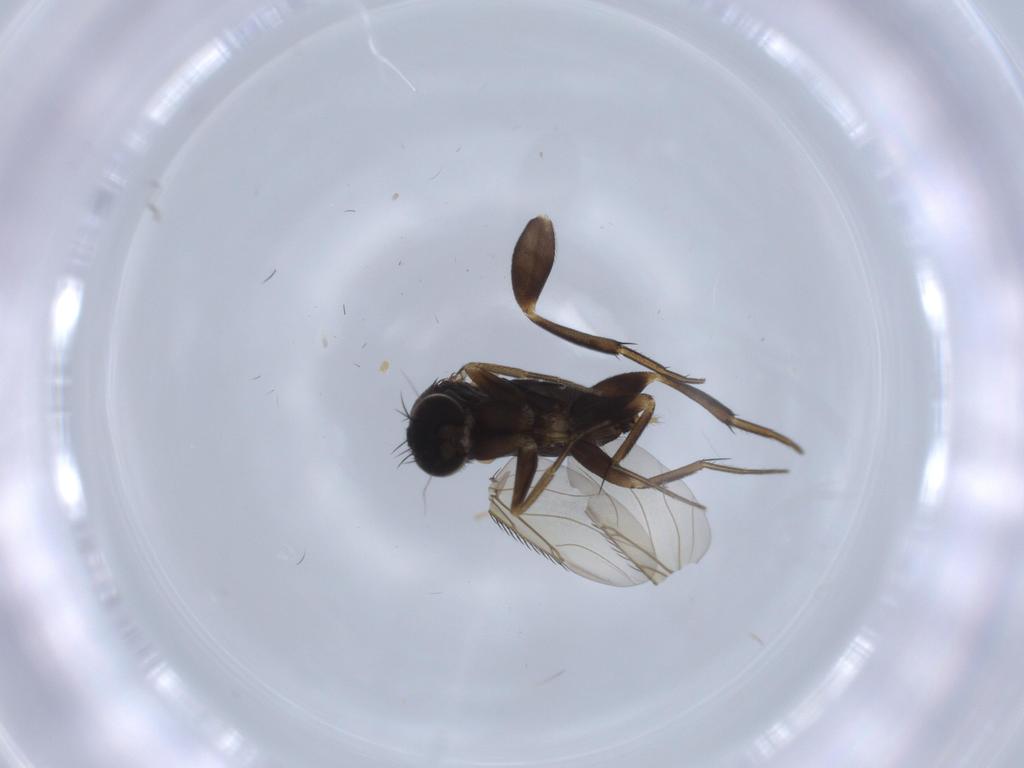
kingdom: Animalia
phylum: Arthropoda
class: Insecta
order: Diptera
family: Phoridae
